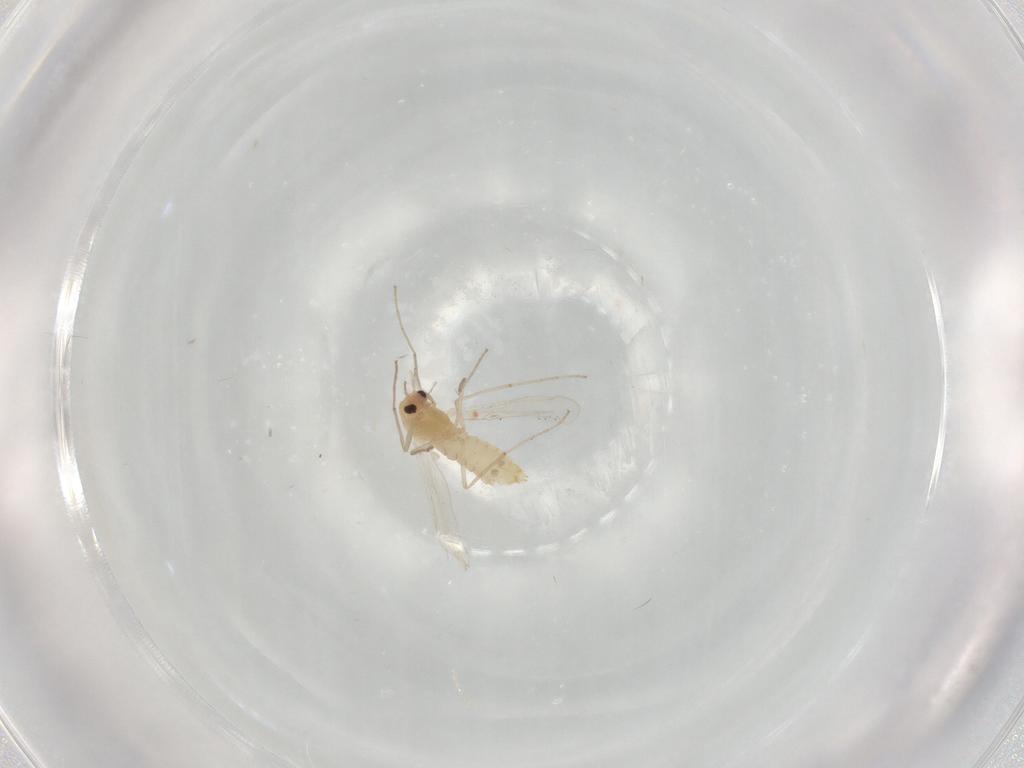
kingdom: Animalia
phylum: Arthropoda
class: Insecta
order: Diptera
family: Chironomidae
